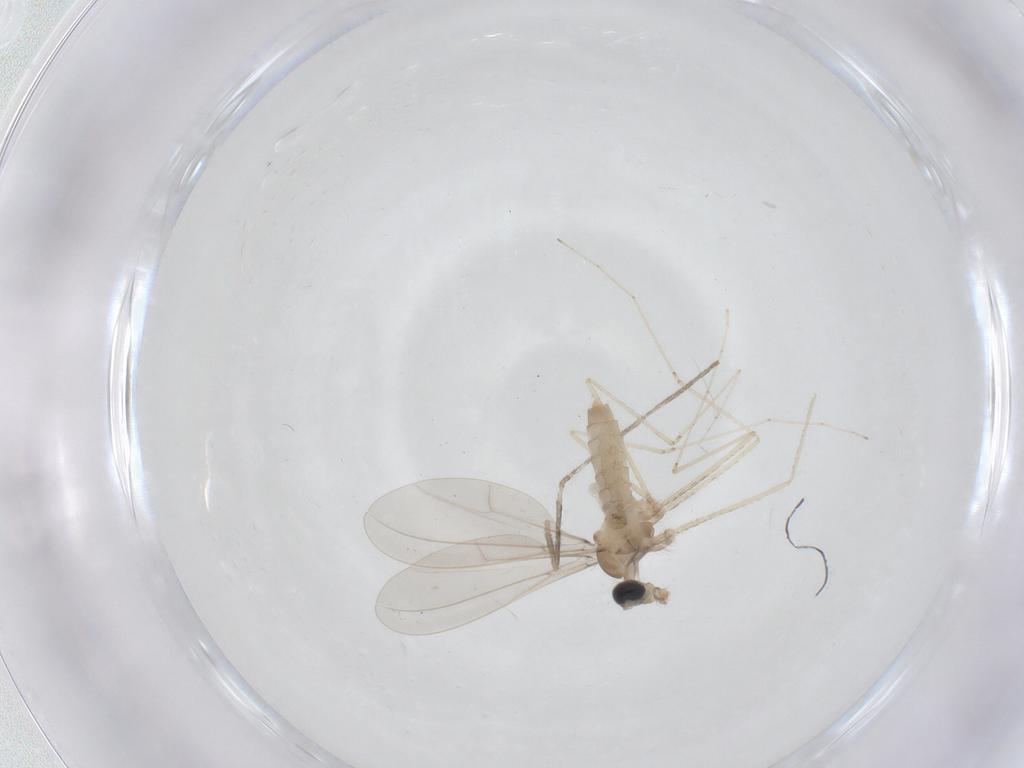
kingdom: Animalia
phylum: Arthropoda
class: Insecta
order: Diptera
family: Cecidomyiidae
